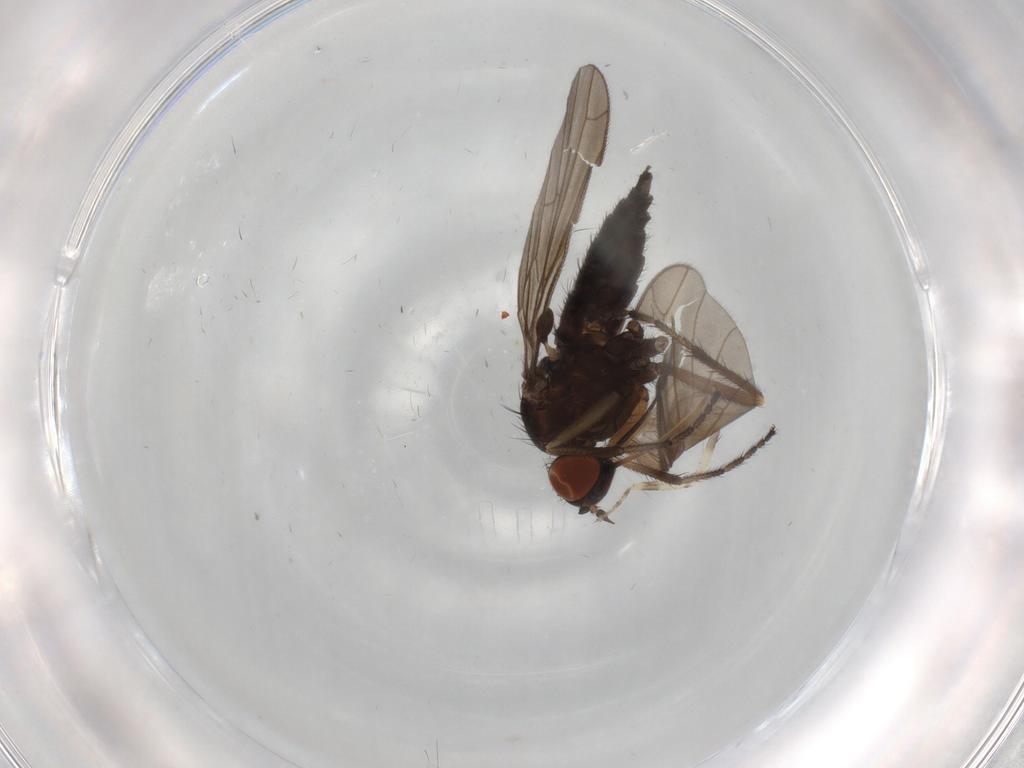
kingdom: Animalia
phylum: Arthropoda
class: Insecta
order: Diptera
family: Empididae
